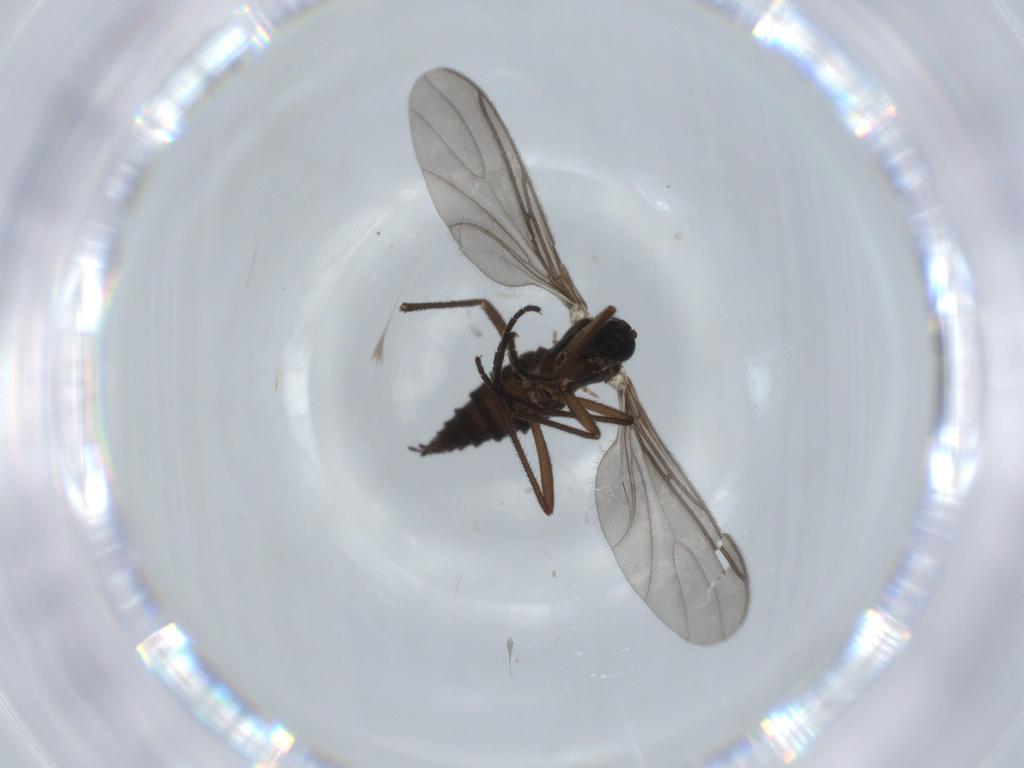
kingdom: Animalia
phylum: Arthropoda
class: Insecta
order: Diptera
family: Sciaridae
